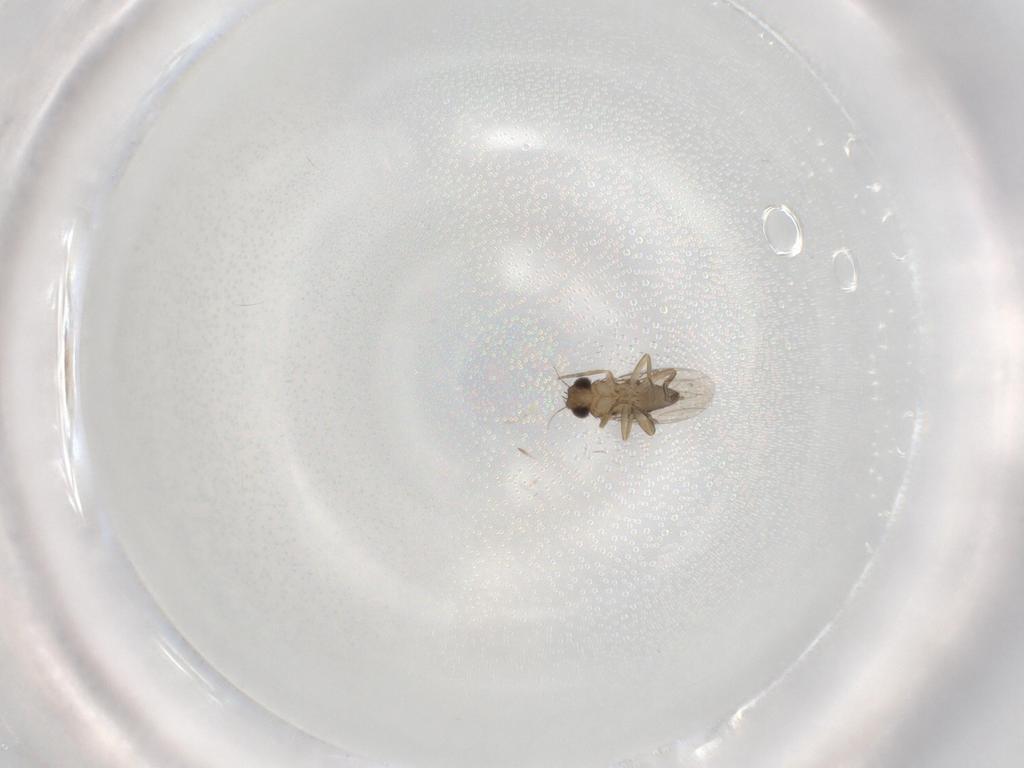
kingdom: Animalia
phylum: Arthropoda
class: Insecta
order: Diptera
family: Phoridae
